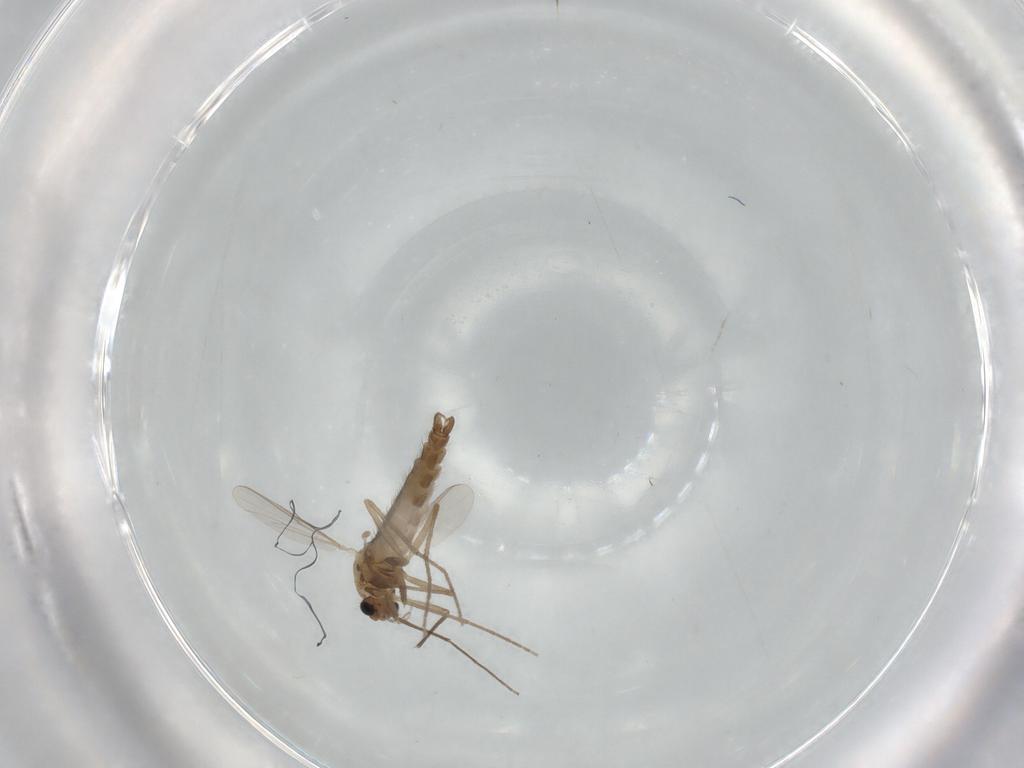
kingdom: Animalia
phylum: Arthropoda
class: Insecta
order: Diptera
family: Chironomidae
